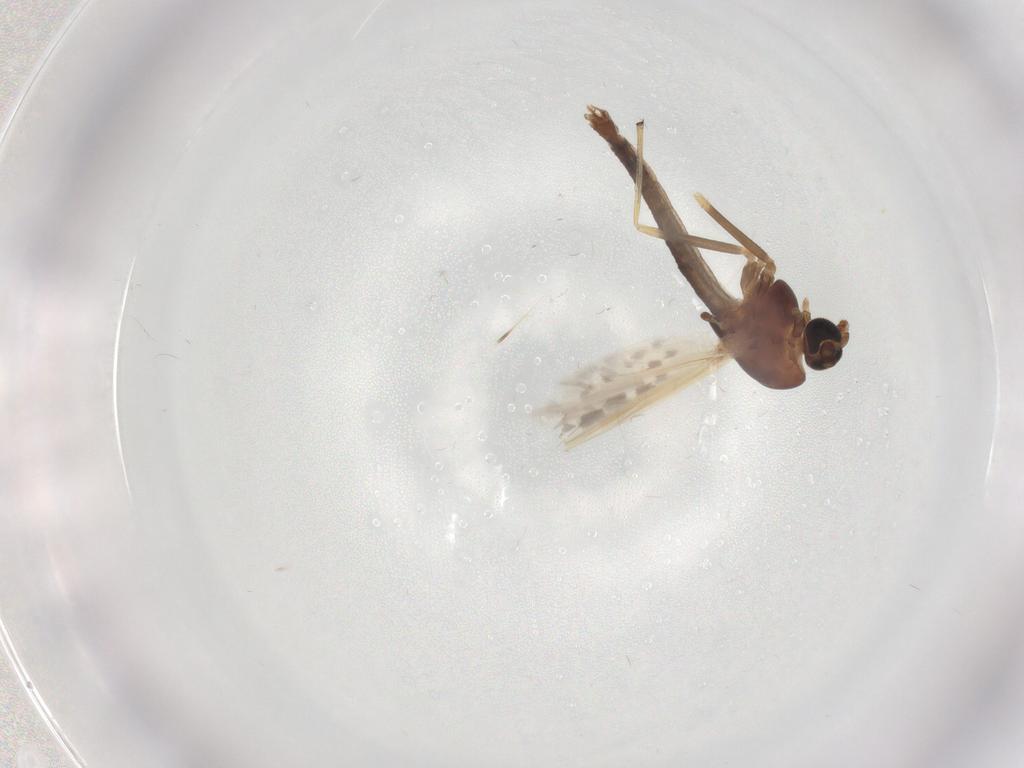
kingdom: Animalia
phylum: Arthropoda
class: Insecta
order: Diptera
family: Chironomidae
